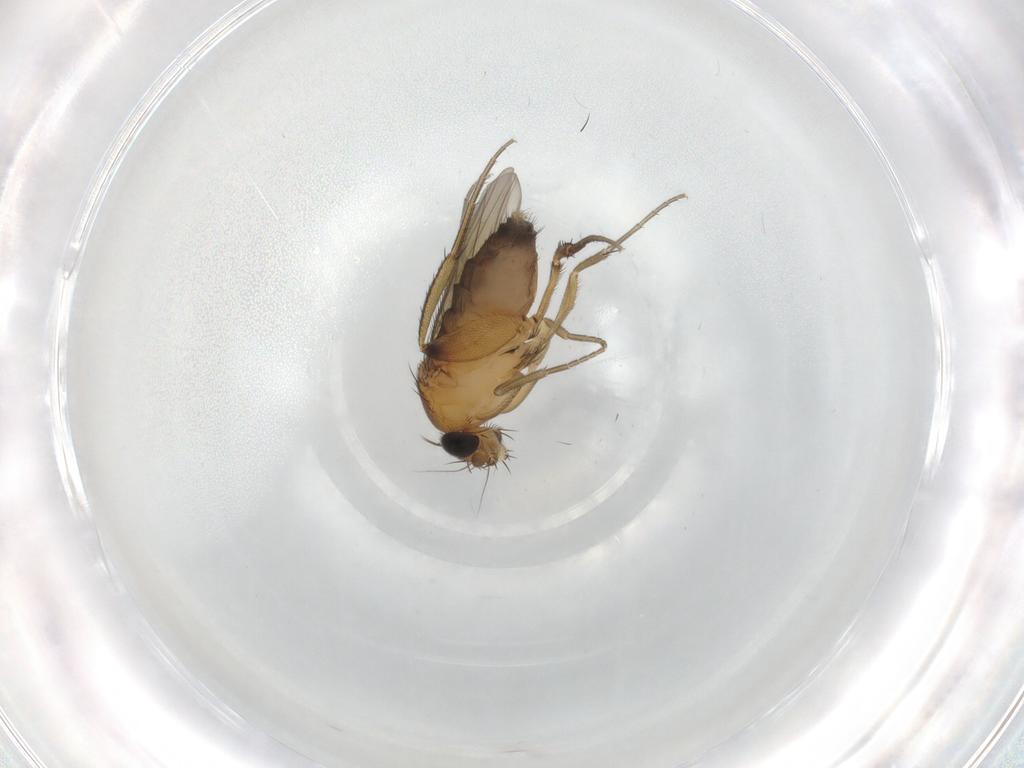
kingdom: Animalia
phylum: Arthropoda
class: Insecta
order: Diptera
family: Phoridae
